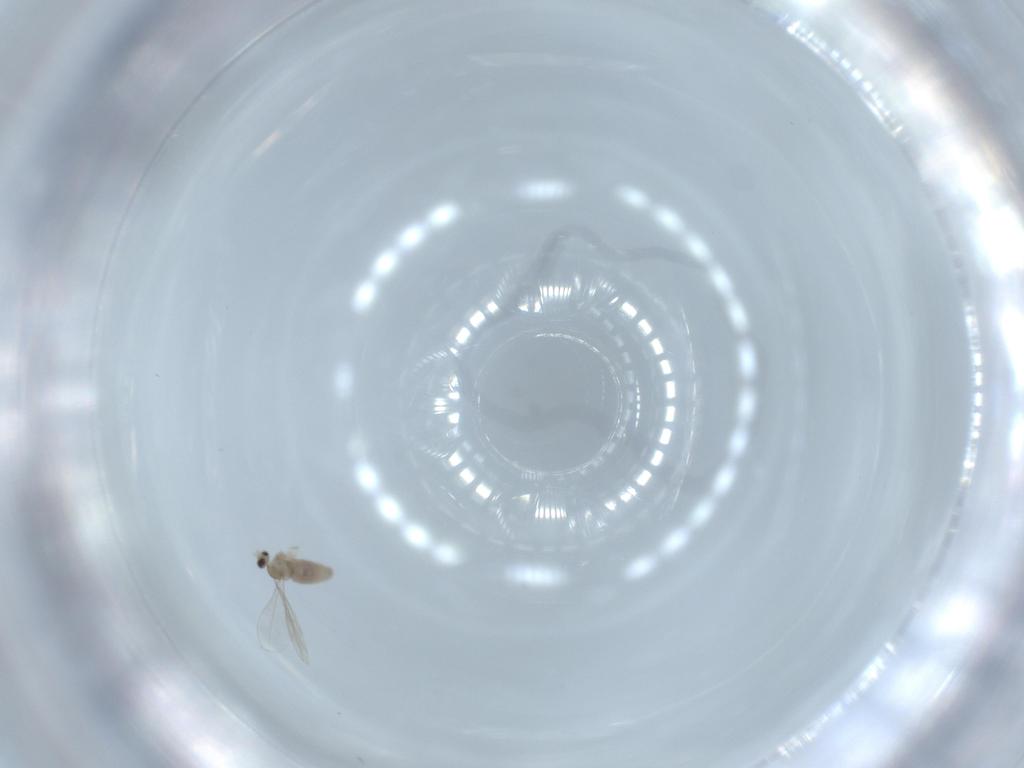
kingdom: Animalia
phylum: Arthropoda
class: Insecta
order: Diptera
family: Cecidomyiidae
